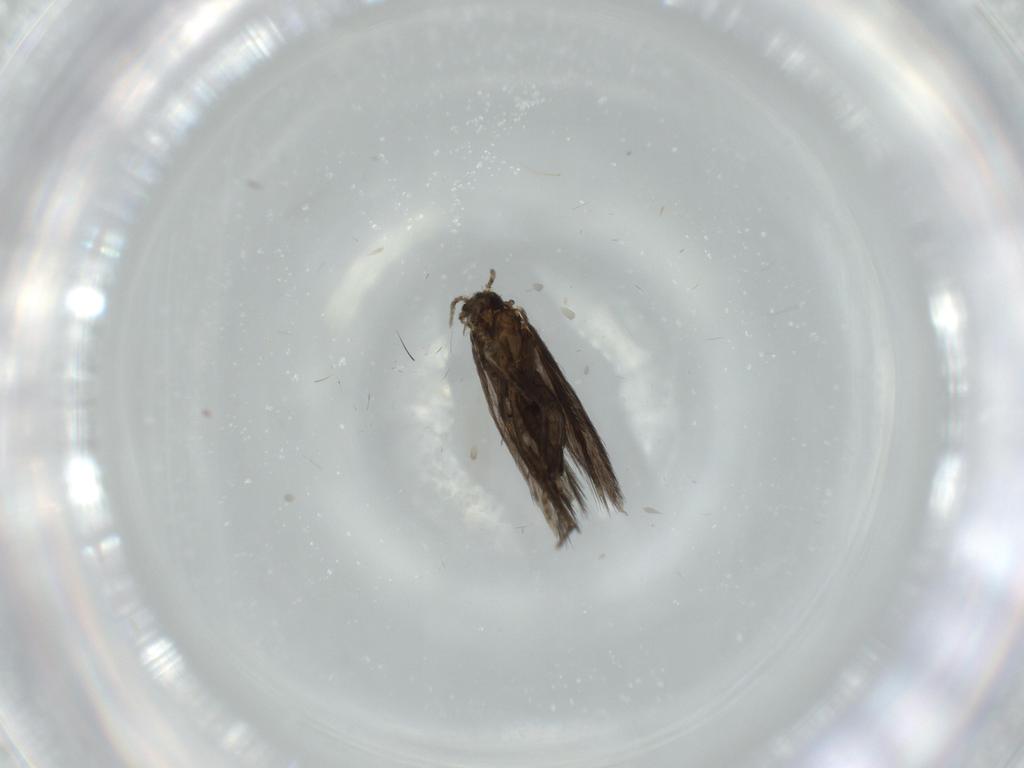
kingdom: Animalia
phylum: Arthropoda
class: Insecta
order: Trichoptera
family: Hydroptilidae
